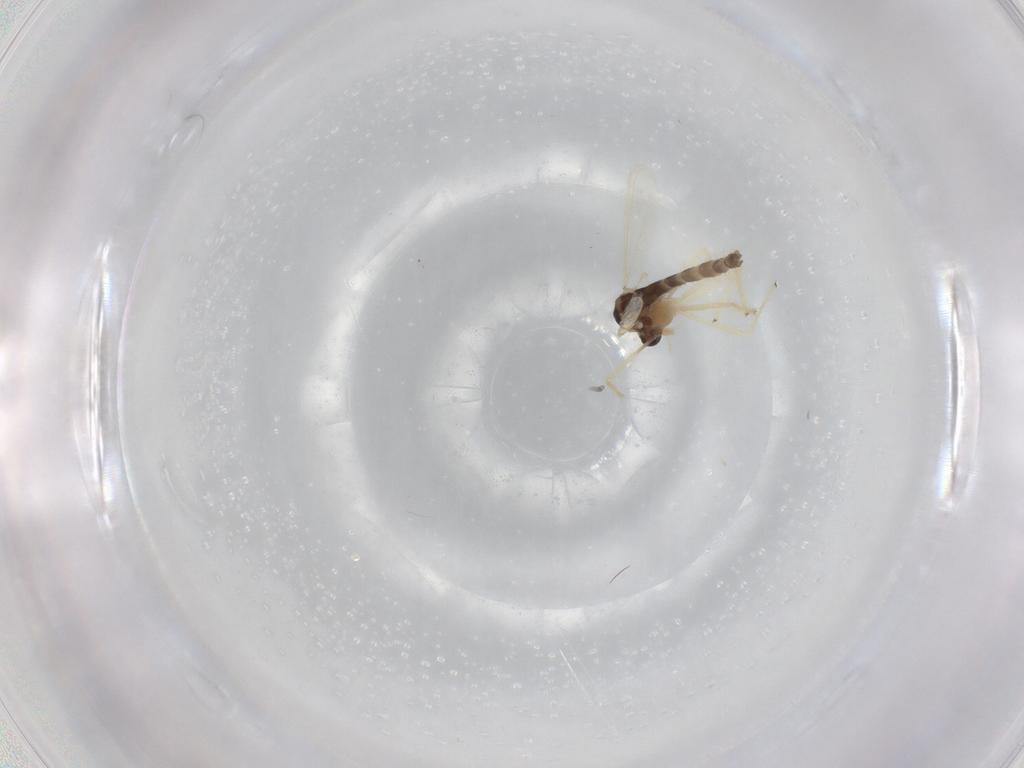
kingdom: Animalia
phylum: Arthropoda
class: Insecta
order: Diptera
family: Chironomidae
